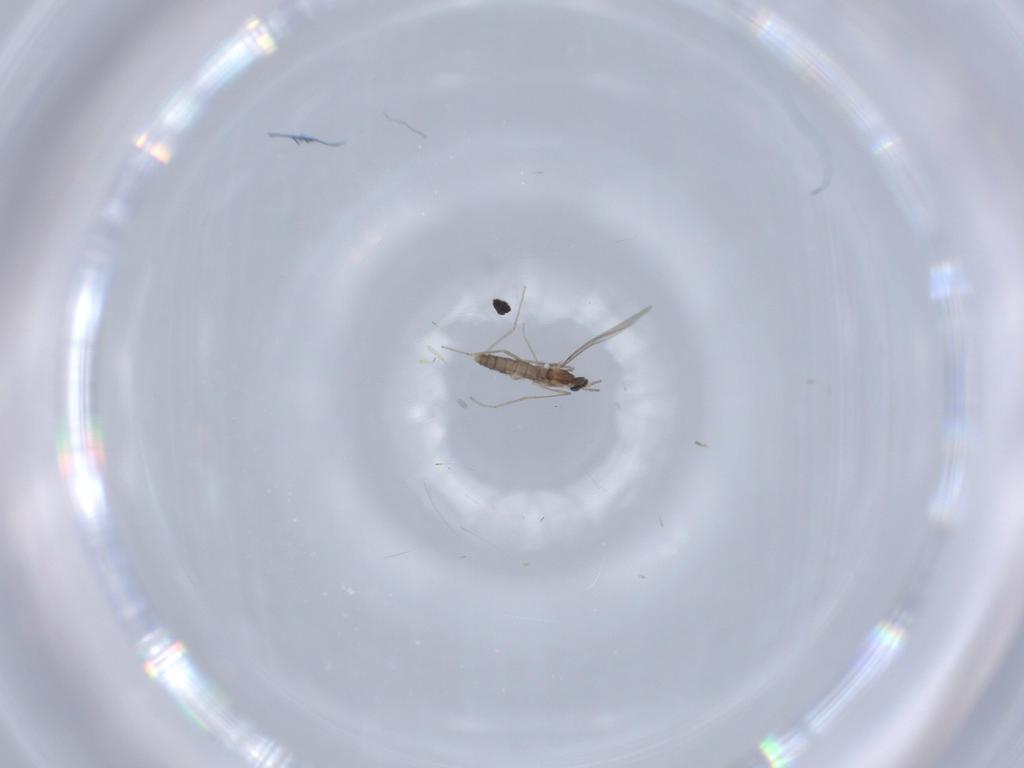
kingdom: Animalia
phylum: Arthropoda
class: Insecta
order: Diptera
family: Cecidomyiidae
